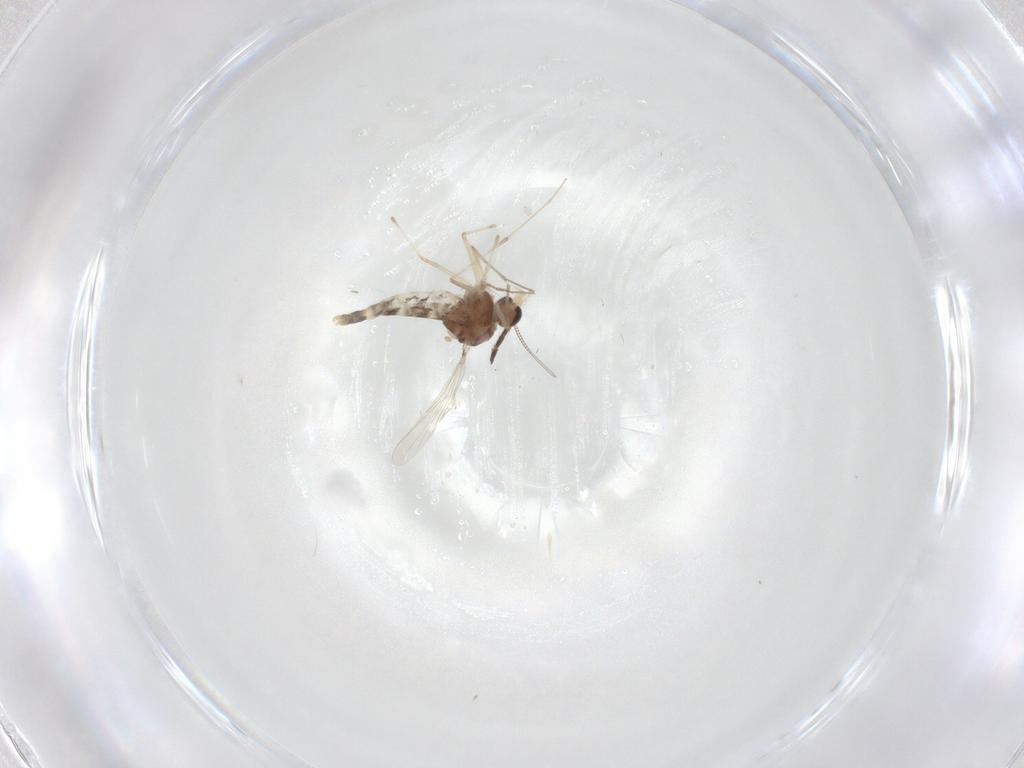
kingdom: Animalia
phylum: Arthropoda
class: Insecta
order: Diptera
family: Chironomidae
